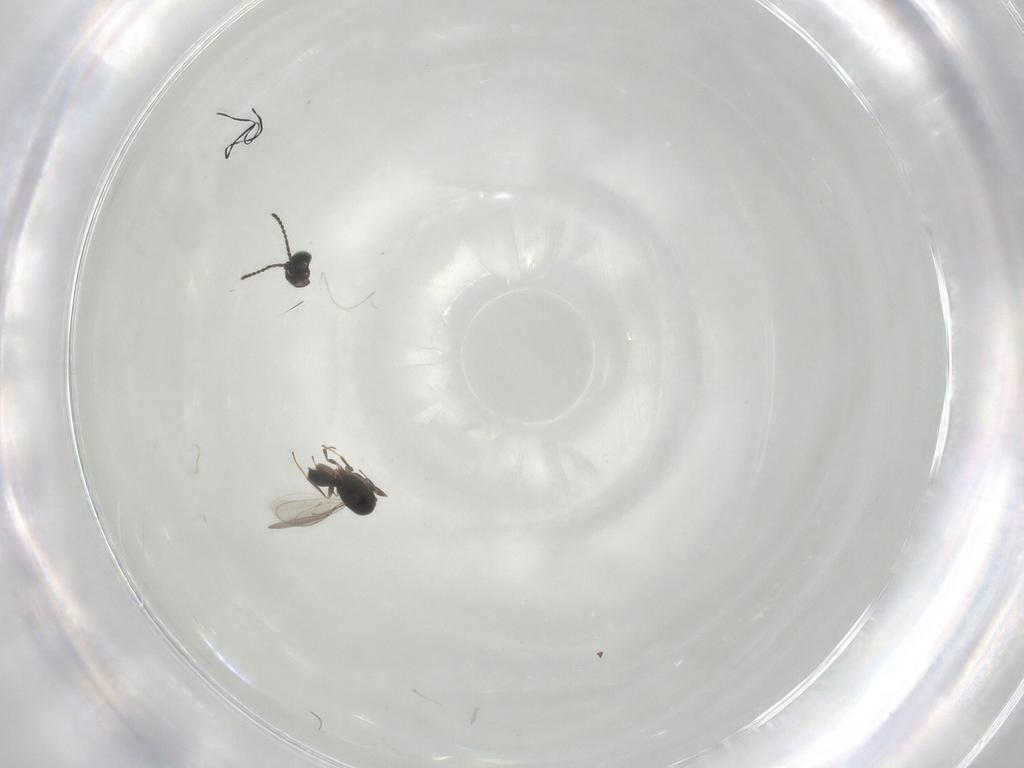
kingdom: Animalia
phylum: Arthropoda
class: Insecta
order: Hymenoptera
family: Scelionidae
